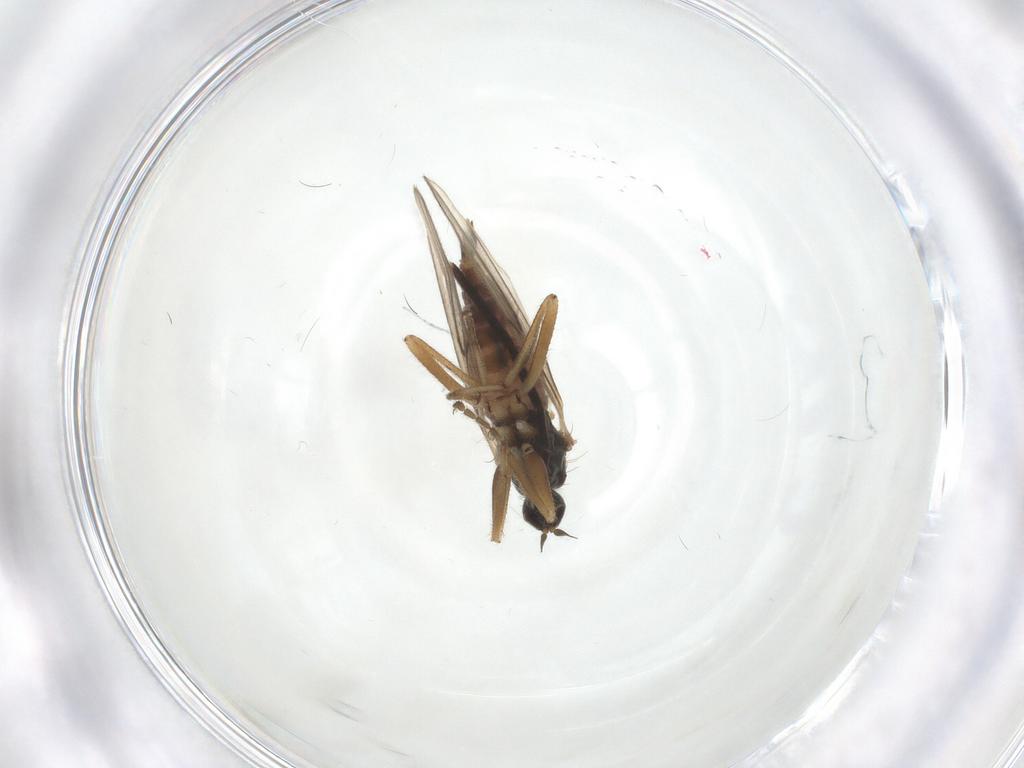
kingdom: Animalia
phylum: Arthropoda
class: Insecta
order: Diptera
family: Hybotidae
